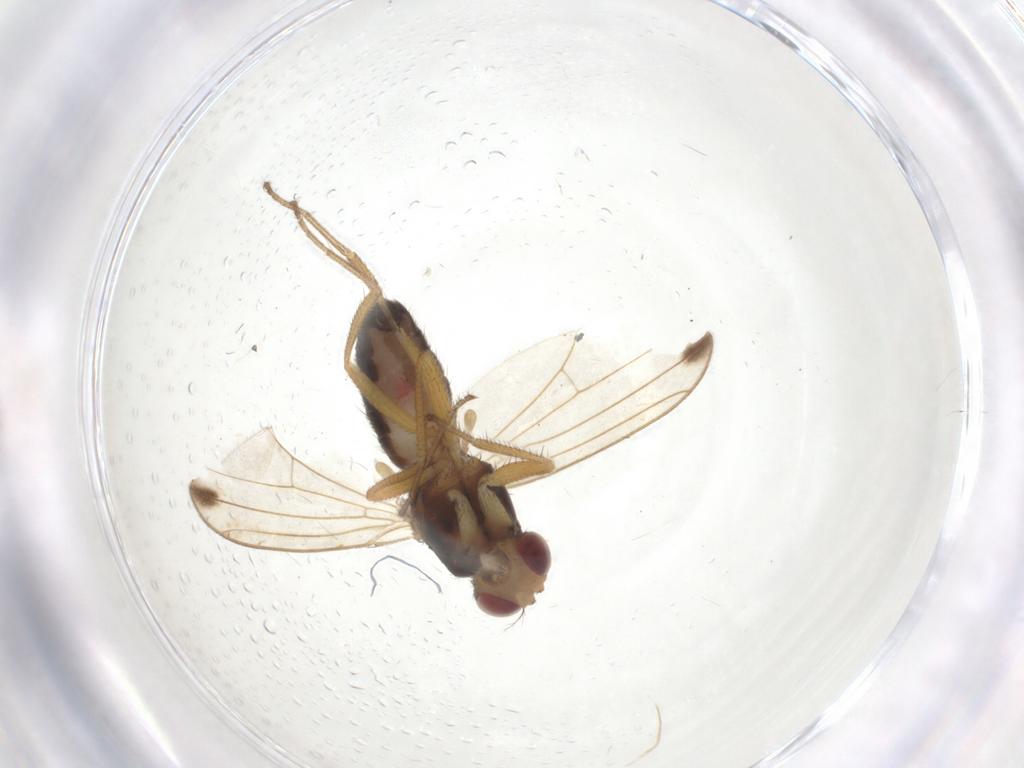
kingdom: Animalia
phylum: Arthropoda
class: Insecta
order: Diptera
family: Drosophilidae
